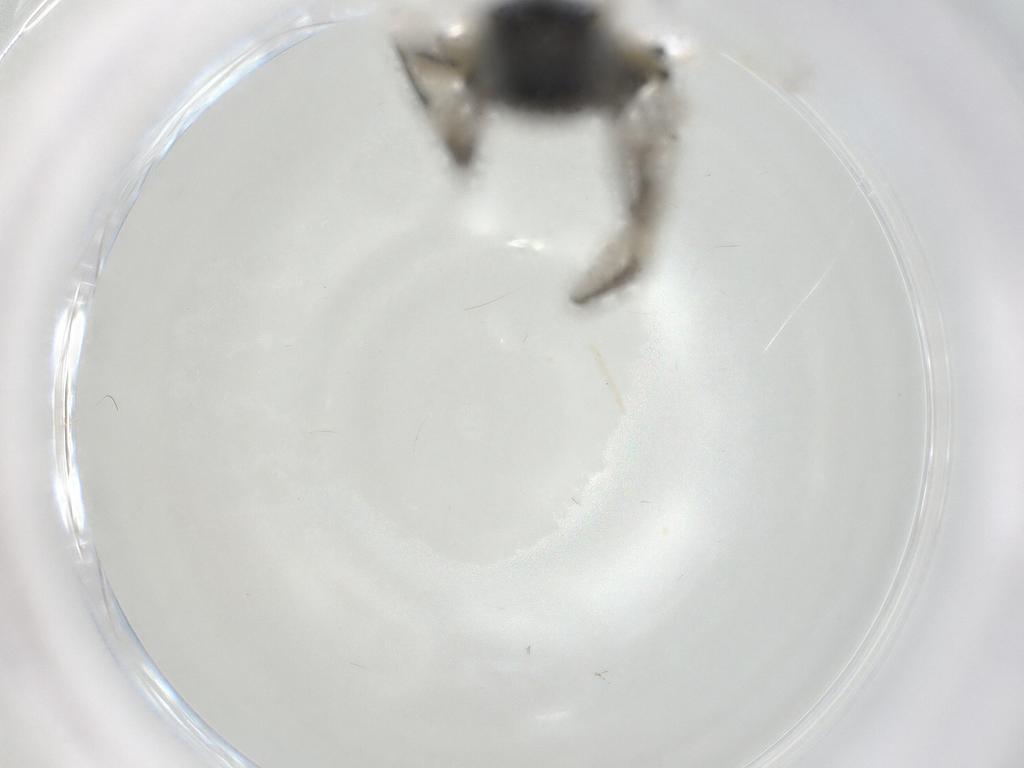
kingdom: Animalia
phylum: Arthropoda
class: Insecta
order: Diptera
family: Stratiomyidae
